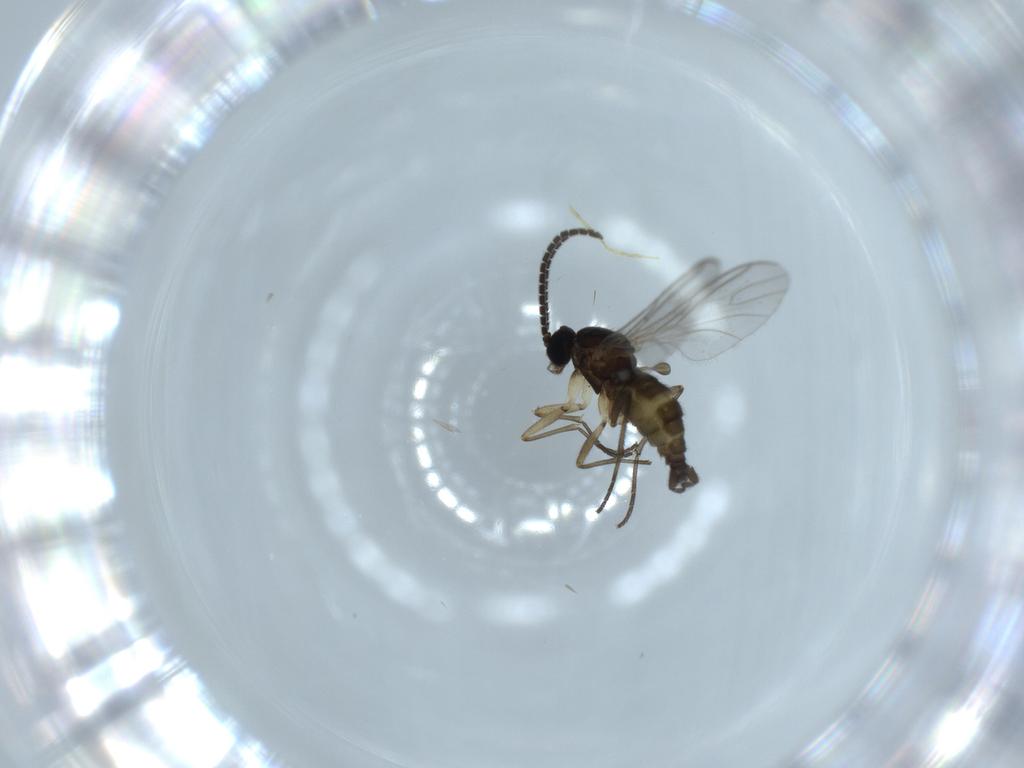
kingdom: Animalia
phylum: Arthropoda
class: Insecta
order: Diptera
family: Sciaridae
